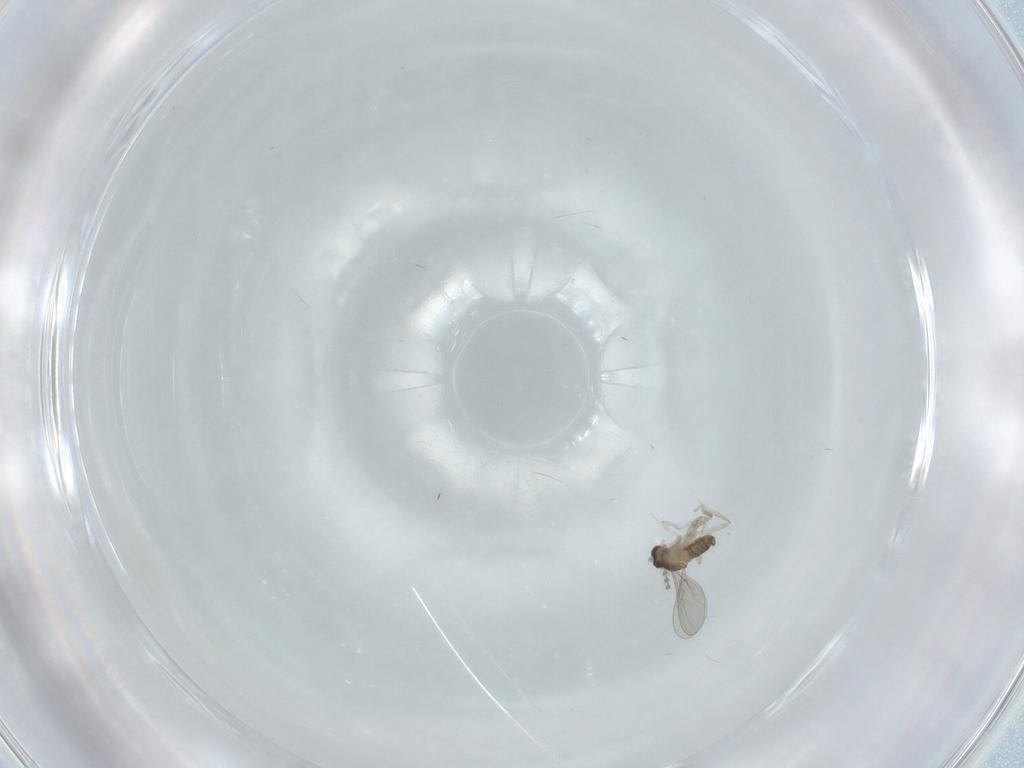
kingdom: Animalia
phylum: Arthropoda
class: Insecta
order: Diptera
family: Cecidomyiidae
